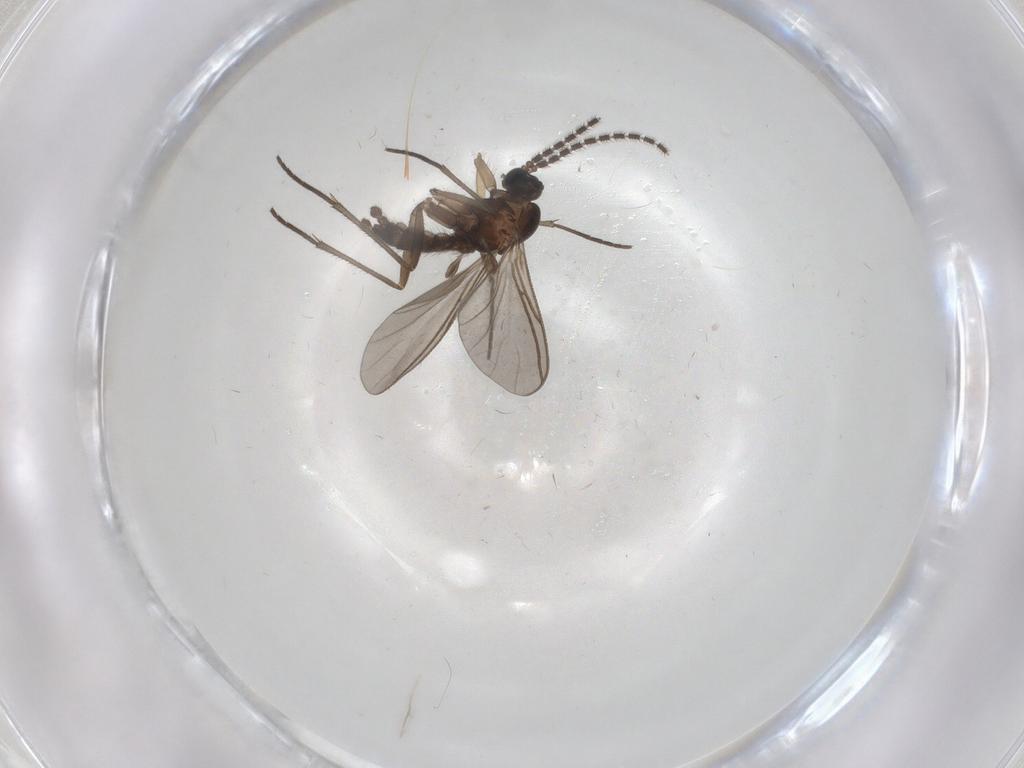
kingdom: Animalia
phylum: Arthropoda
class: Insecta
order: Diptera
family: Sciaridae
